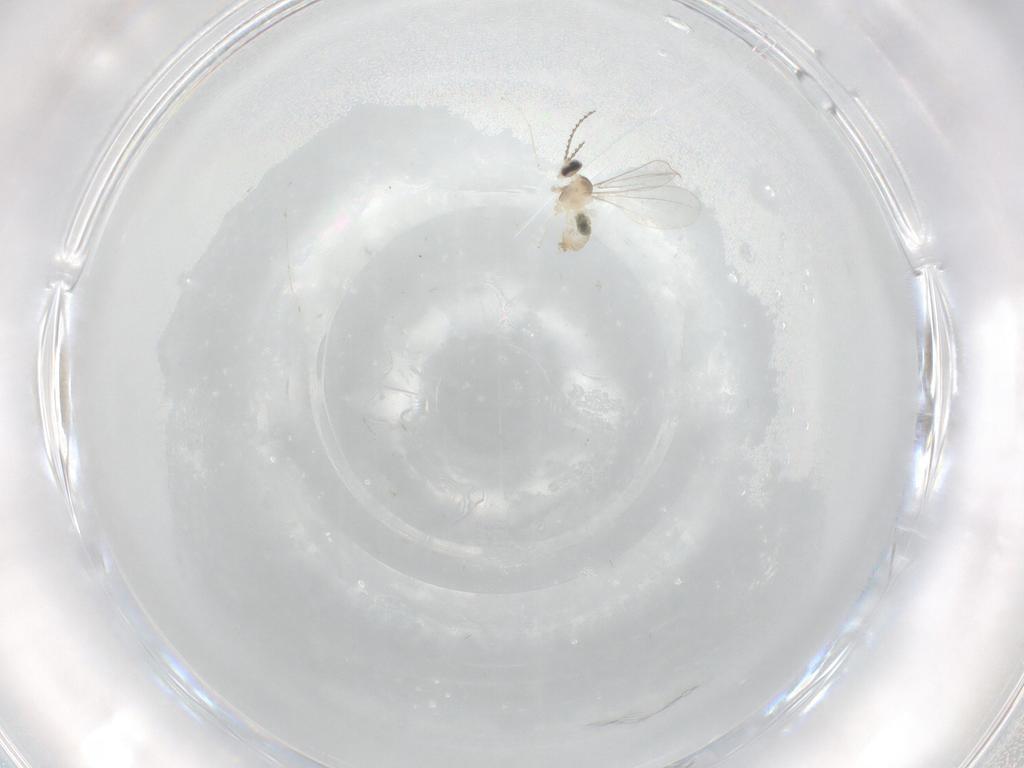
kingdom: Animalia
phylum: Arthropoda
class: Insecta
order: Diptera
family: Cecidomyiidae
